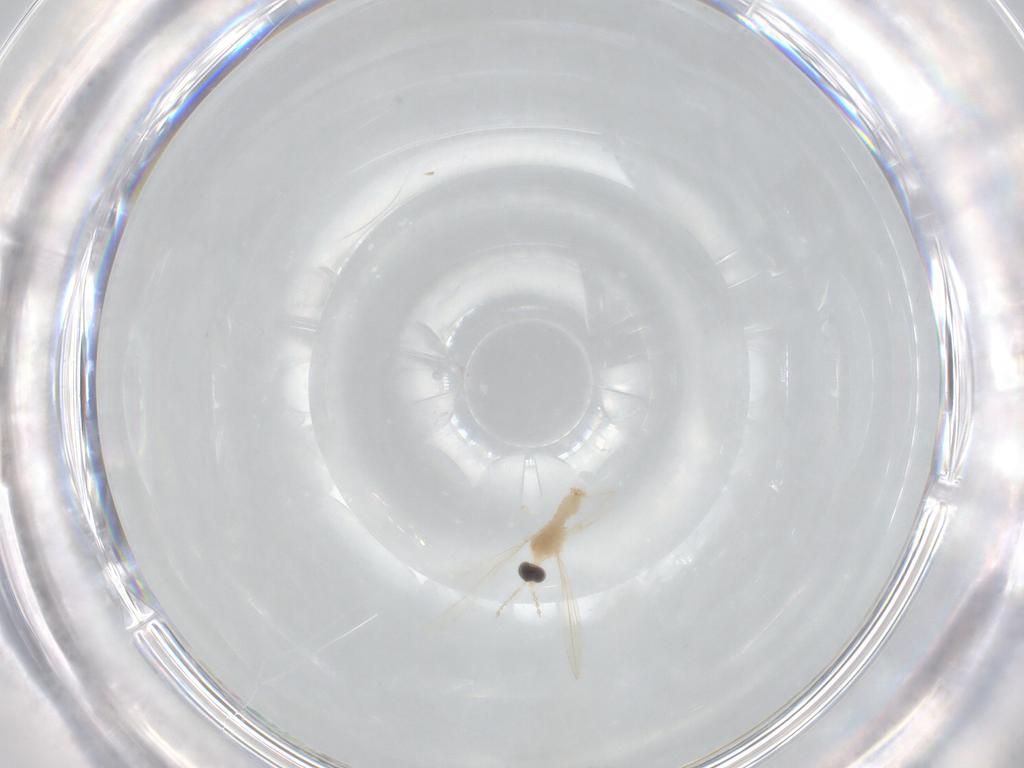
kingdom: Animalia
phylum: Arthropoda
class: Insecta
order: Diptera
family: Cecidomyiidae
